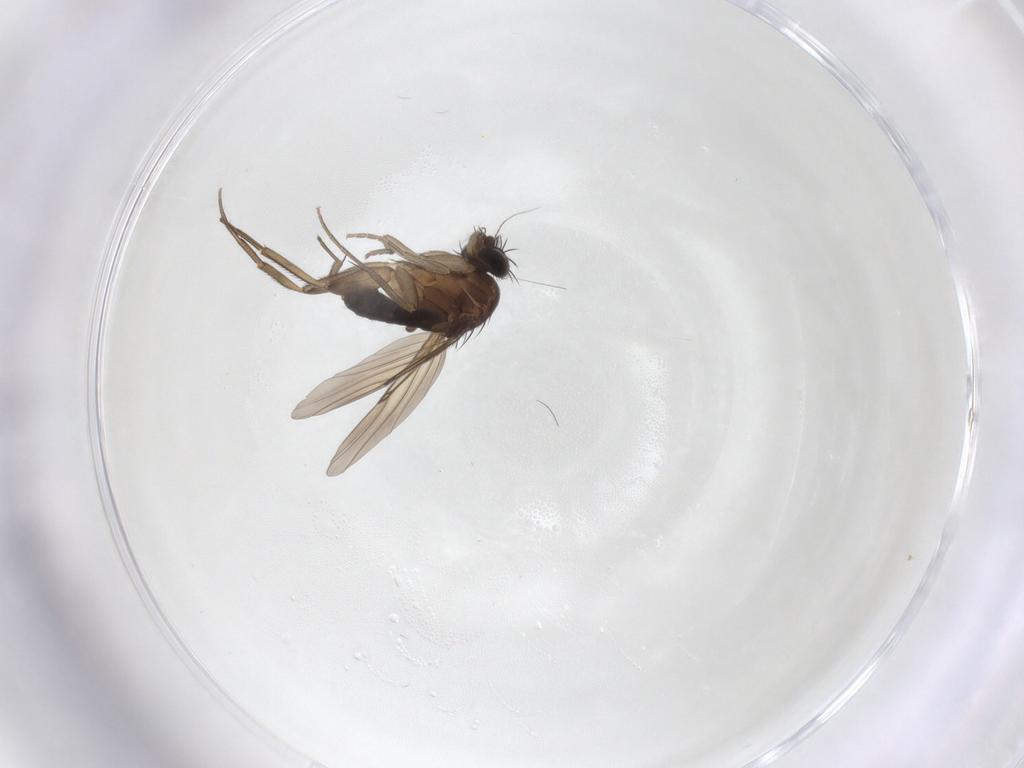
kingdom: Animalia
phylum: Arthropoda
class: Insecta
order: Diptera
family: Phoridae
